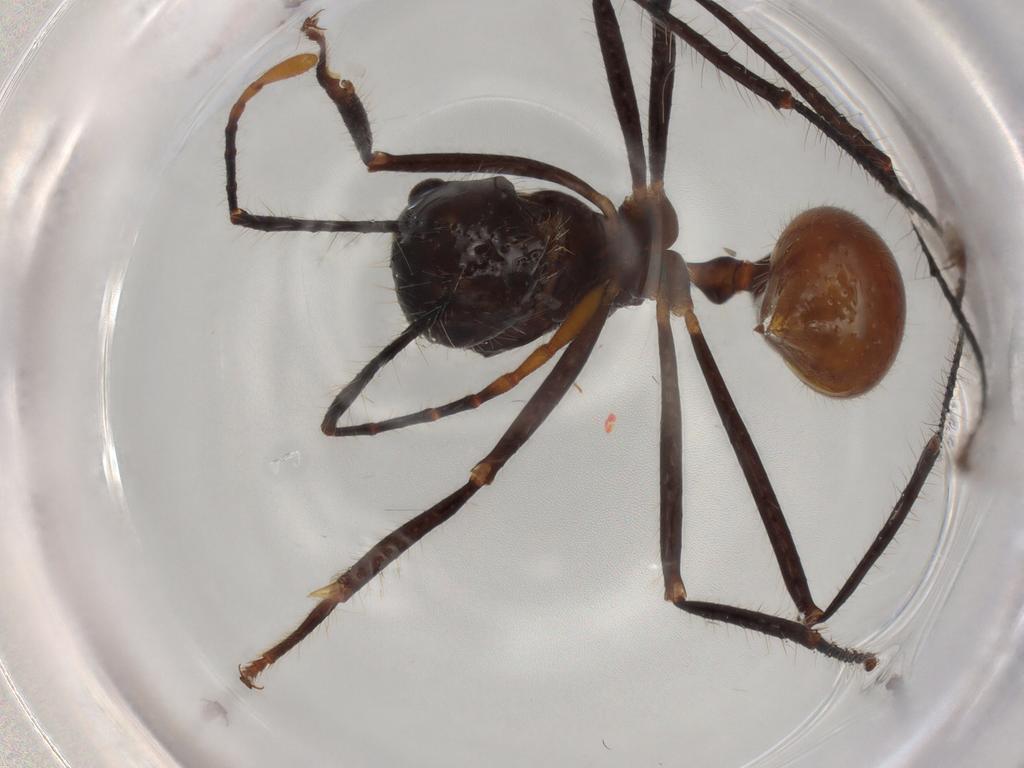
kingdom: Animalia
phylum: Arthropoda
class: Insecta
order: Hymenoptera
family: Formicidae
